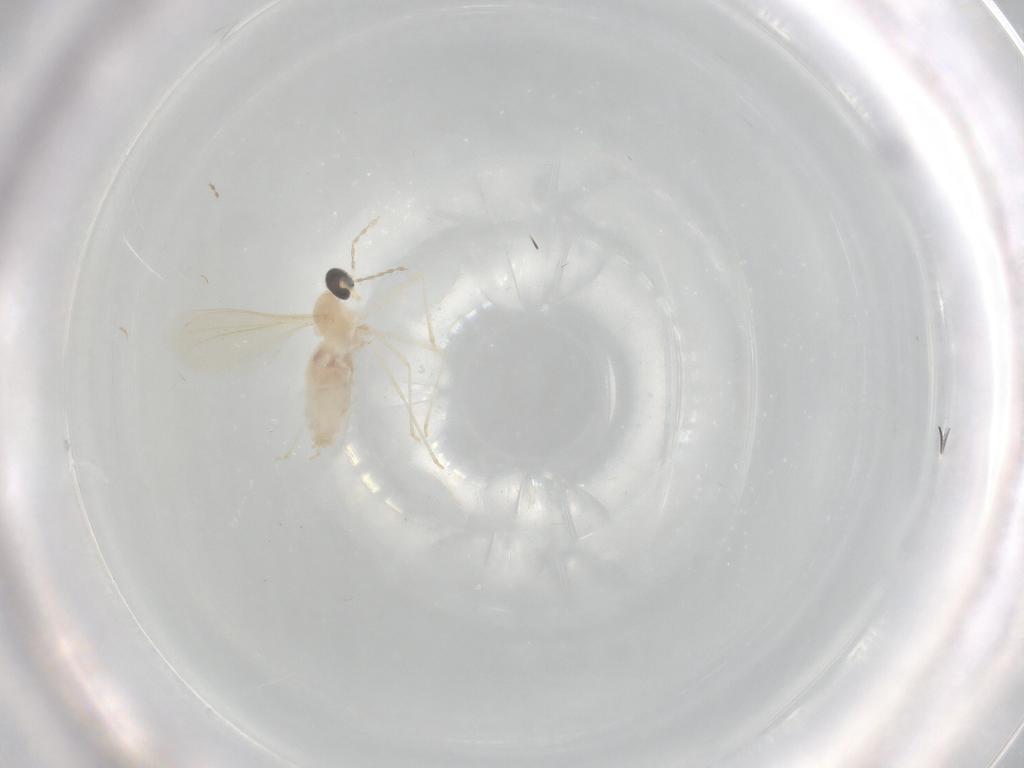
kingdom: Animalia
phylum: Arthropoda
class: Insecta
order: Diptera
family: Cecidomyiidae
